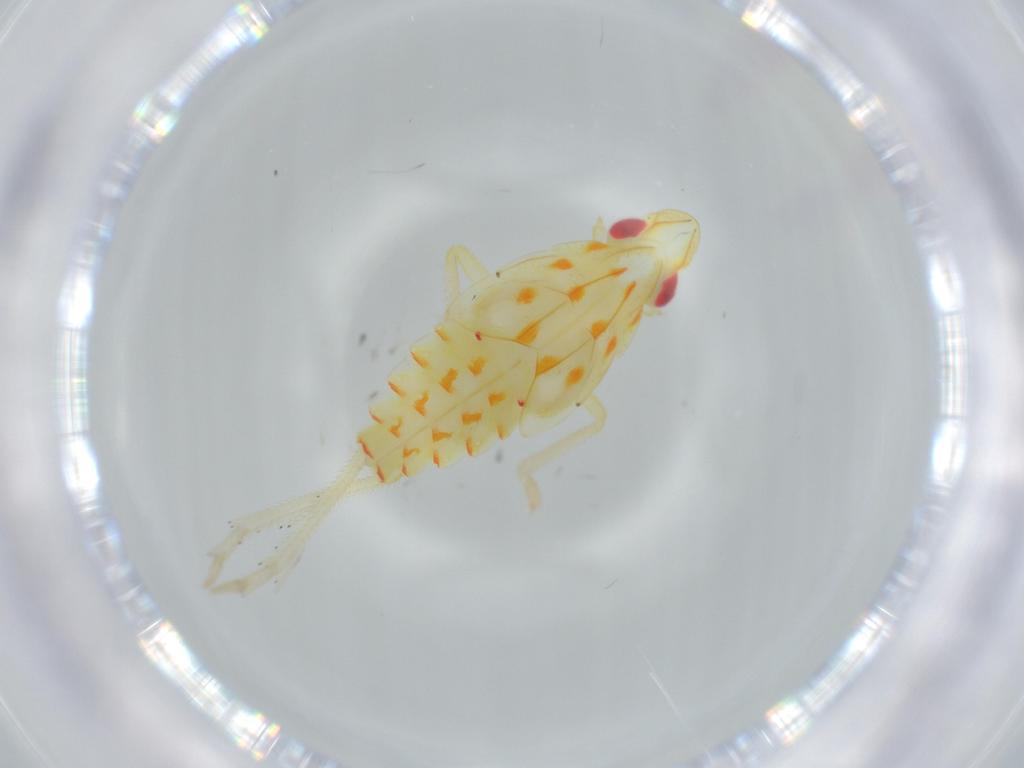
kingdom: Animalia
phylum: Arthropoda
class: Insecta
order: Hemiptera
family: Tropiduchidae
